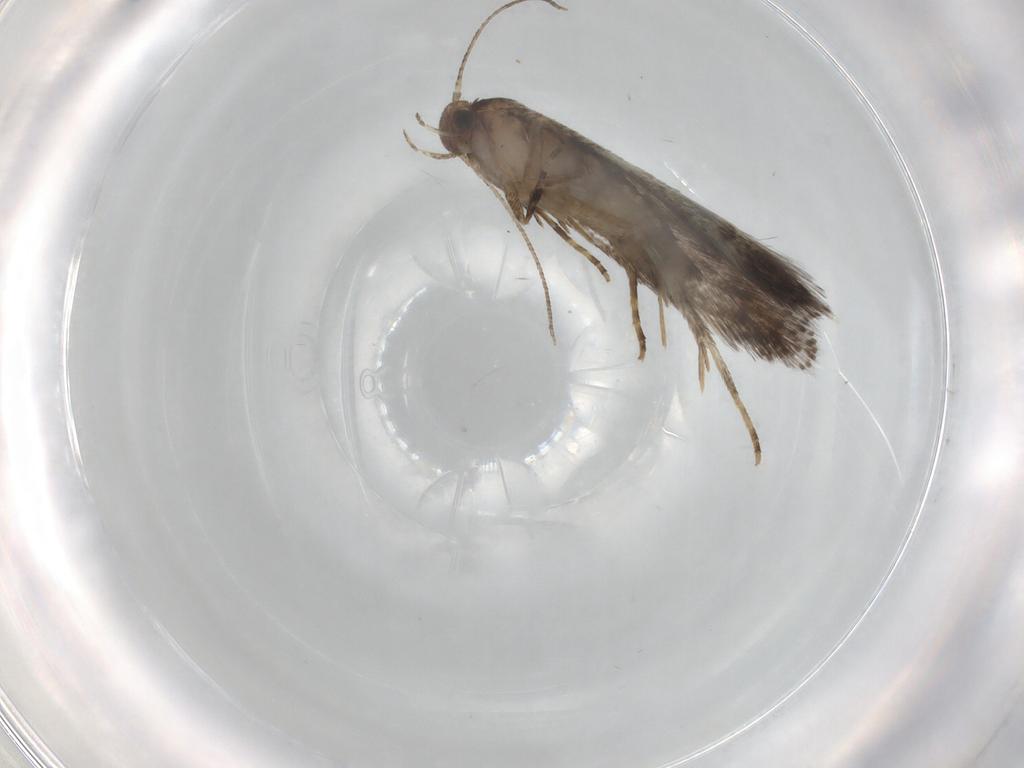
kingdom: Animalia
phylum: Arthropoda
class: Insecta
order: Lepidoptera
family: Elachistidae
